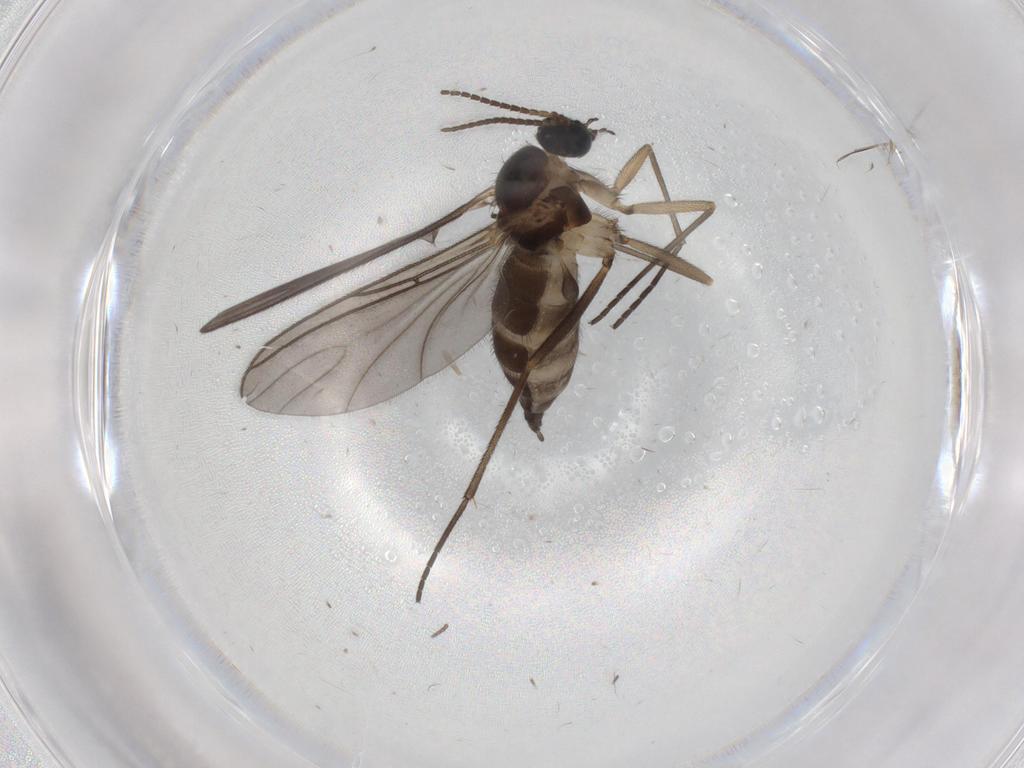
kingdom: Animalia
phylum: Arthropoda
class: Insecta
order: Diptera
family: Sciaridae
